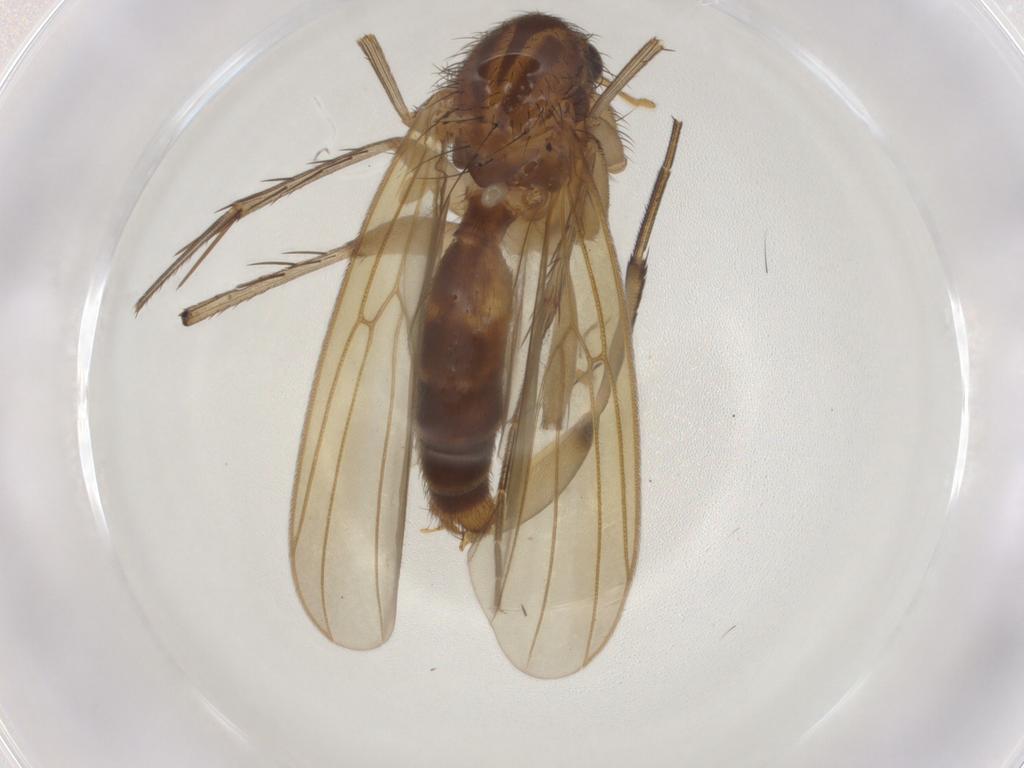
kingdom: Animalia
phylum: Arthropoda
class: Insecta
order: Diptera
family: Mycetophilidae
